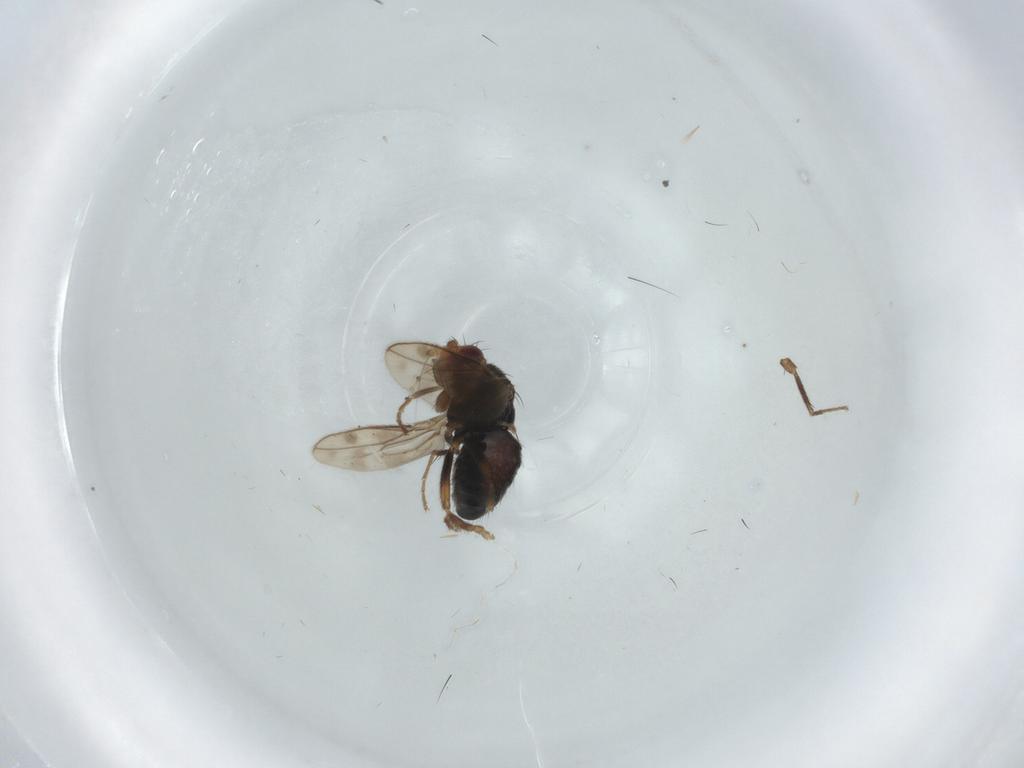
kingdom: Animalia
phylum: Arthropoda
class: Insecta
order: Diptera
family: Sphaeroceridae
